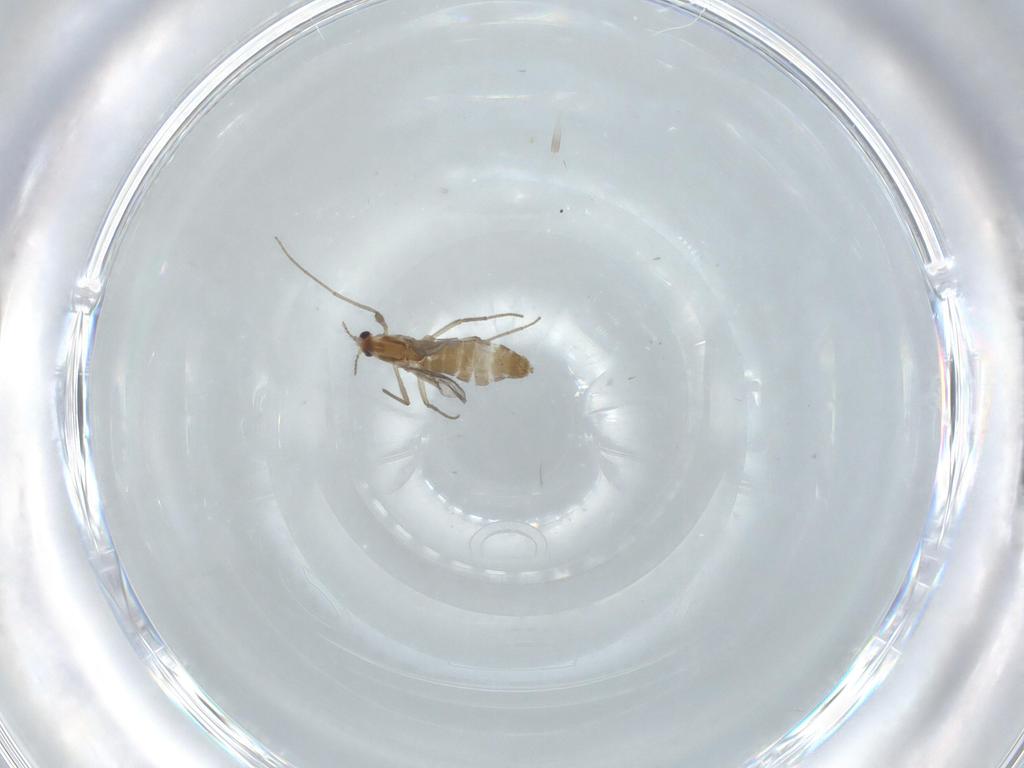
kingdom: Animalia
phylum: Arthropoda
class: Insecta
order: Diptera
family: Chironomidae
